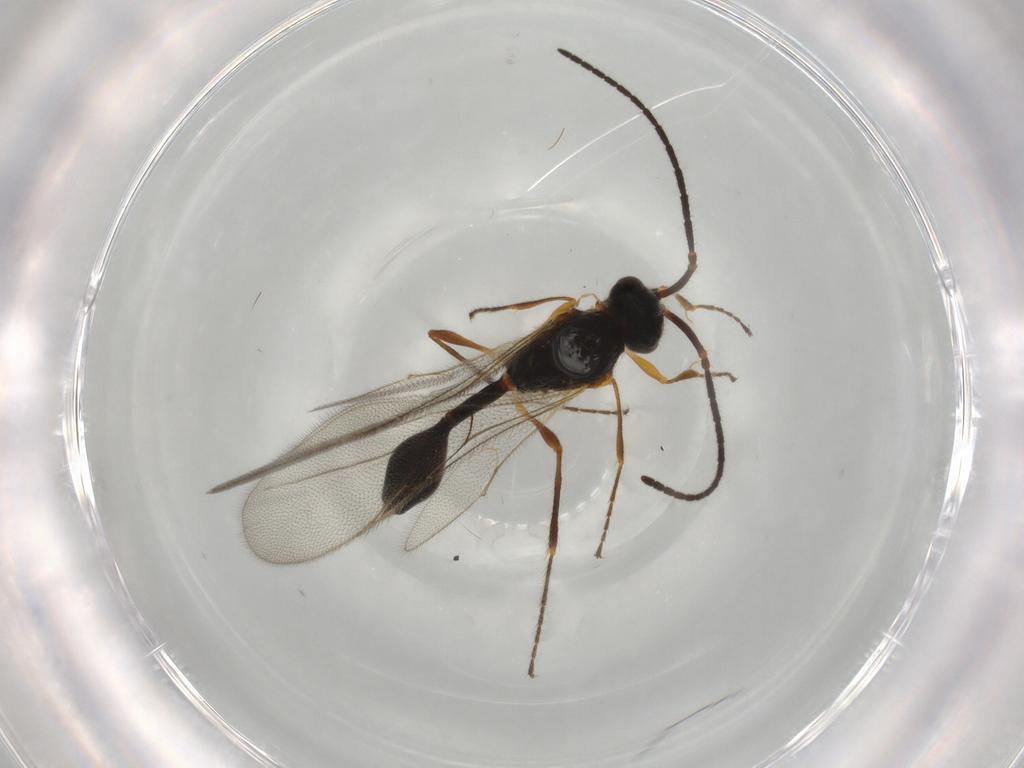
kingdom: Animalia
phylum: Arthropoda
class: Insecta
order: Hymenoptera
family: Diapriidae
